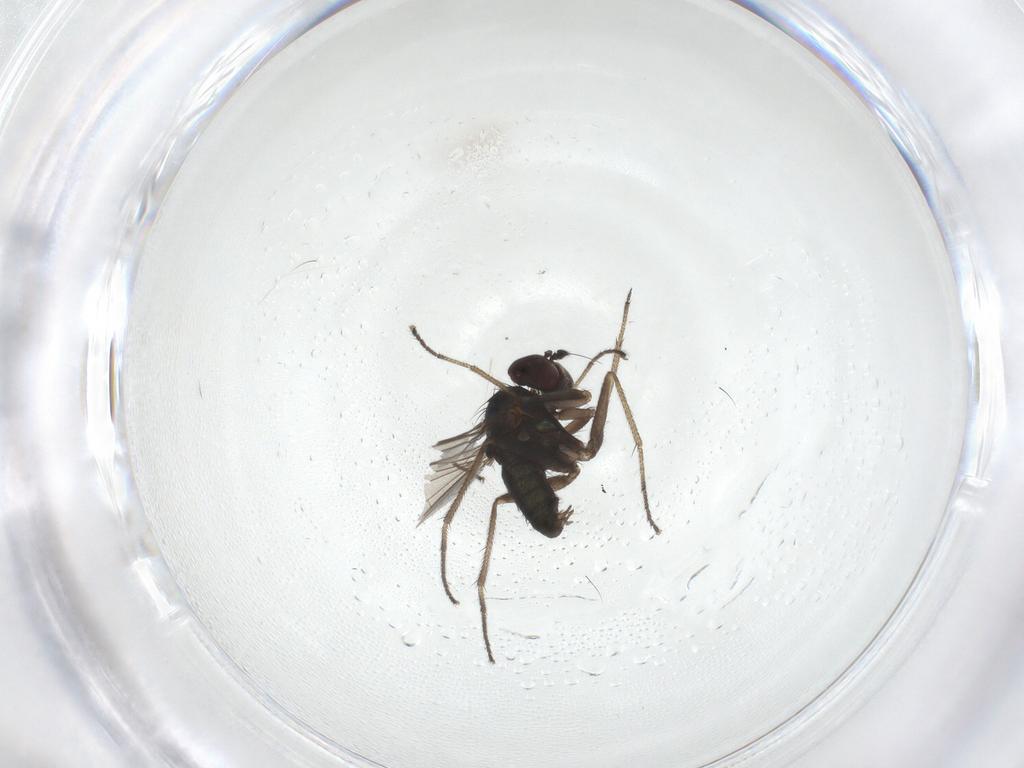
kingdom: Animalia
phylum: Arthropoda
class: Insecta
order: Diptera
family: Dolichopodidae
